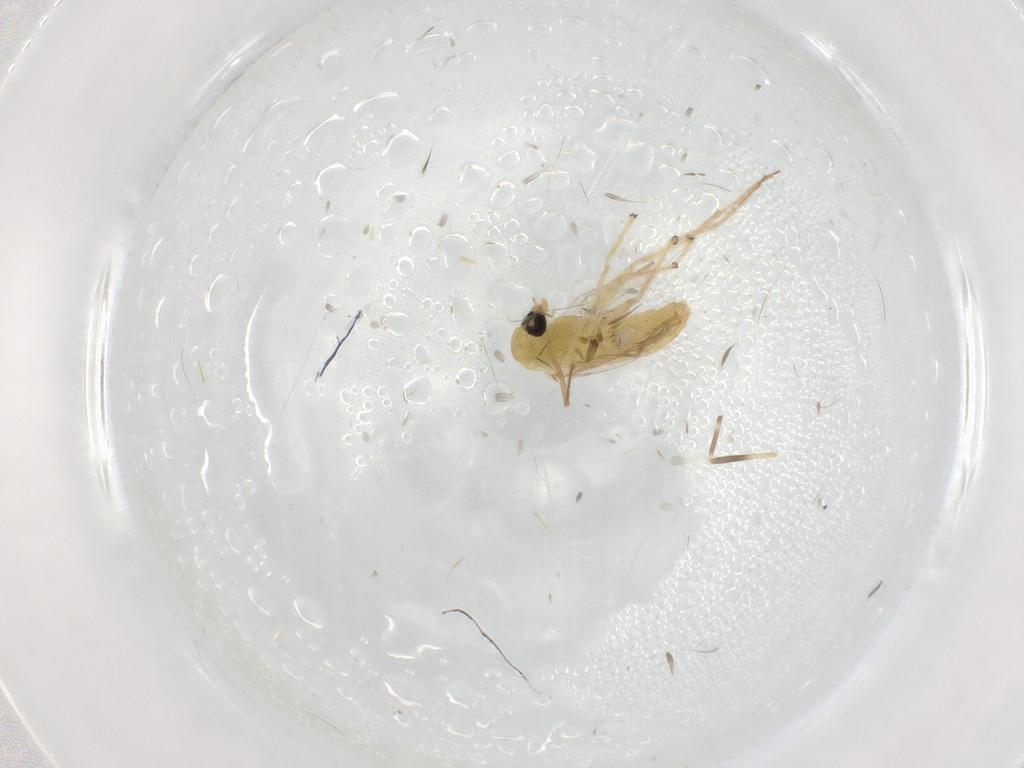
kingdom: Animalia
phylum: Arthropoda
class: Insecta
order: Diptera
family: Chironomidae
